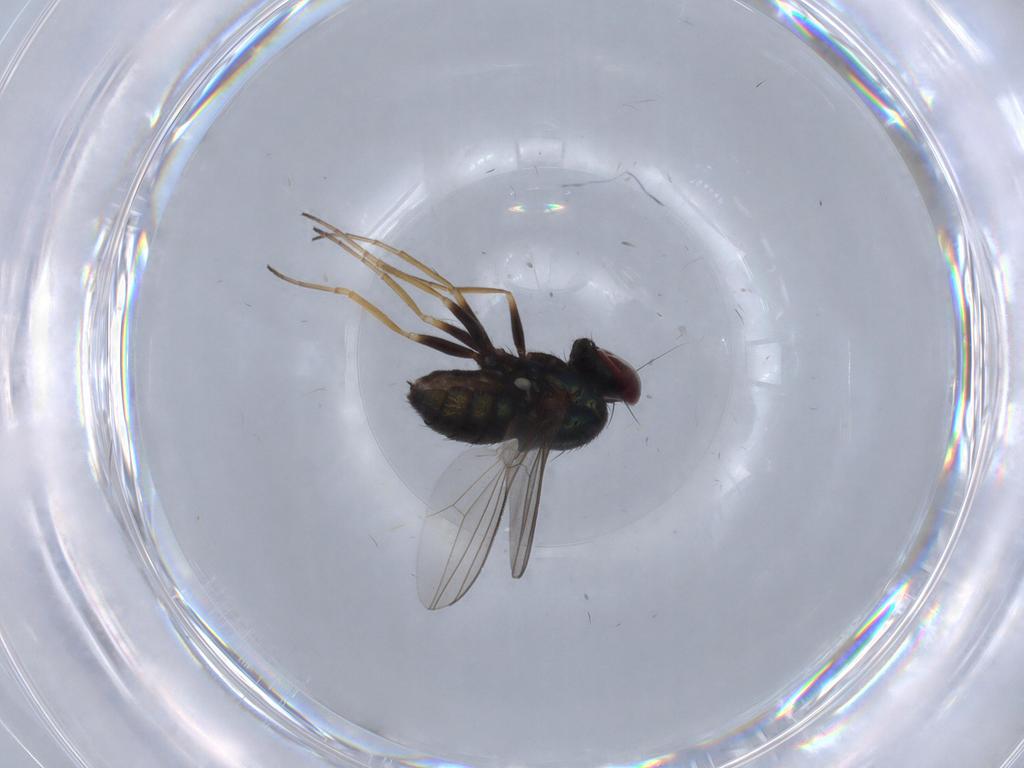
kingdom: Animalia
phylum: Arthropoda
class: Insecta
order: Diptera
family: Dolichopodidae
